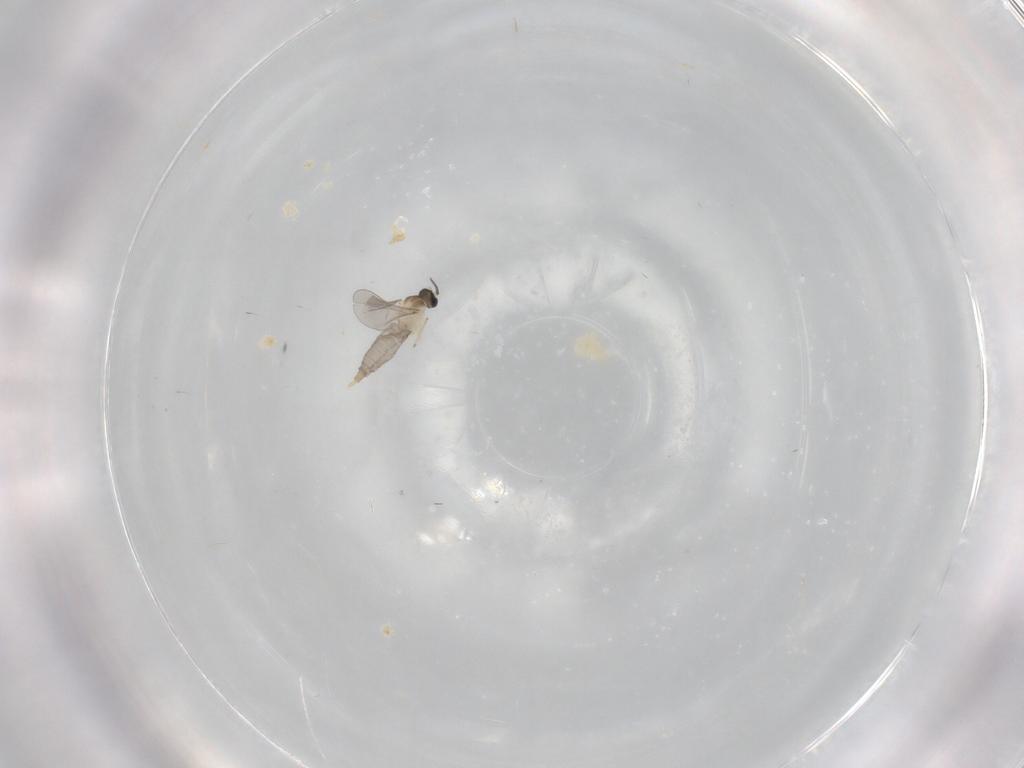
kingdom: Animalia
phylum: Arthropoda
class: Insecta
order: Diptera
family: Cecidomyiidae
